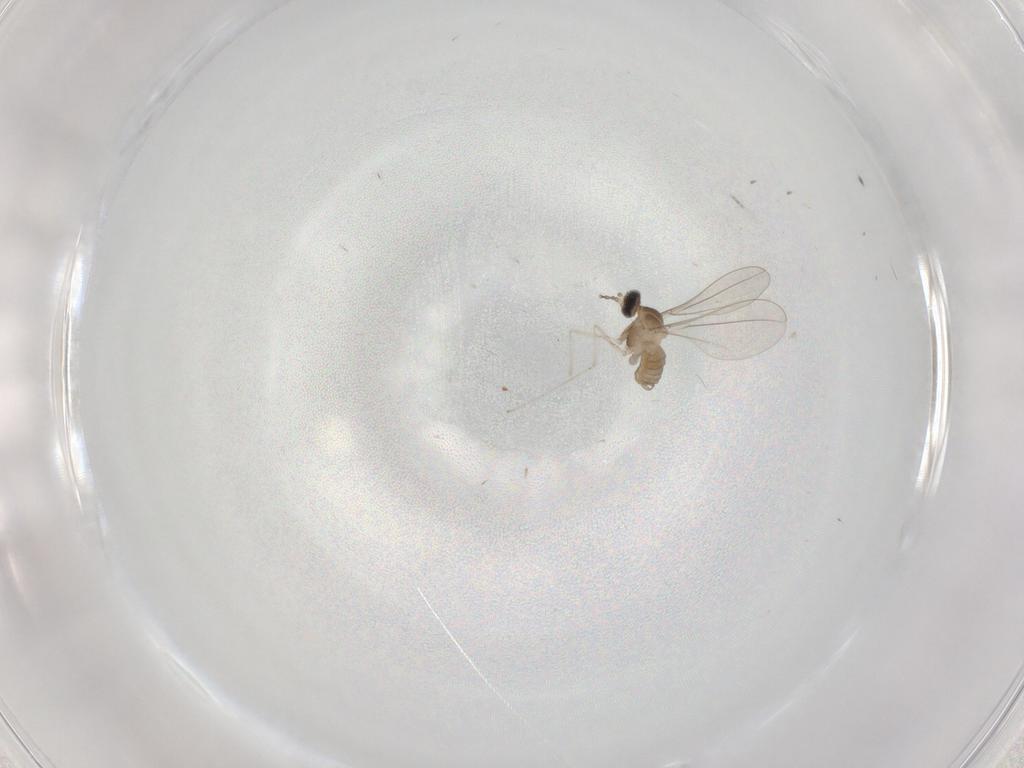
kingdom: Animalia
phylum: Arthropoda
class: Insecta
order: Diptera
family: Cecidomyiidae
